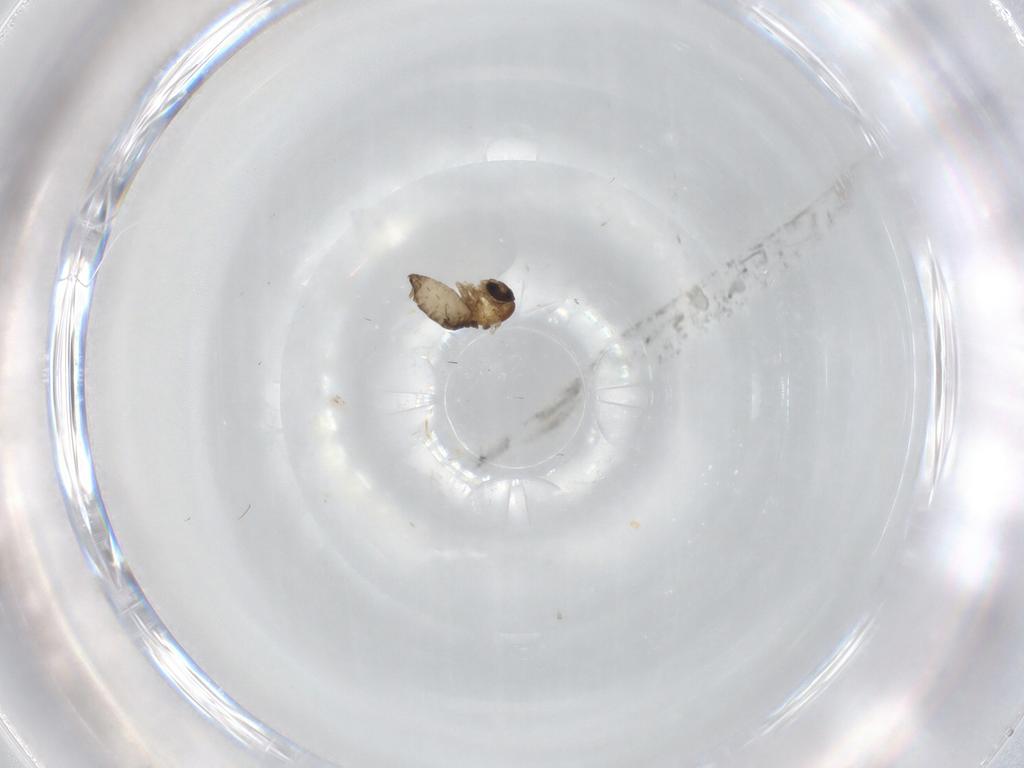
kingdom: Animalia
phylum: Arthropoda
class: Insecta
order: Diptera
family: Psychodidae
